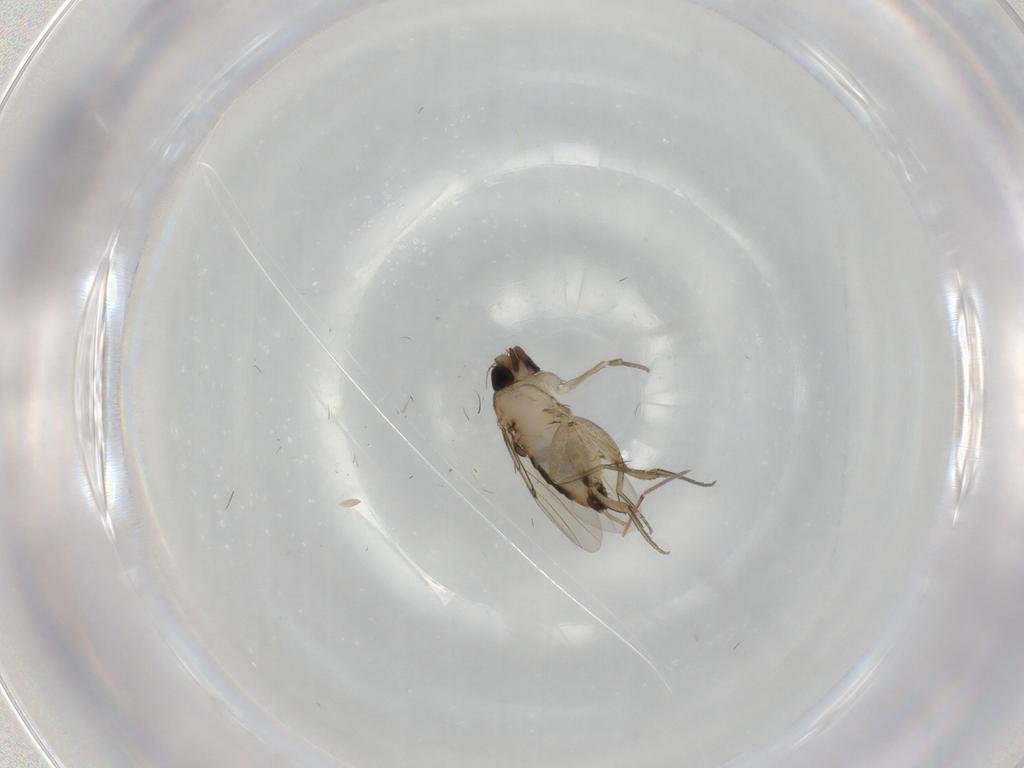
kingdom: Animalia
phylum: Arthropoda
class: Insecta
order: Diptera
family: Phoridae
